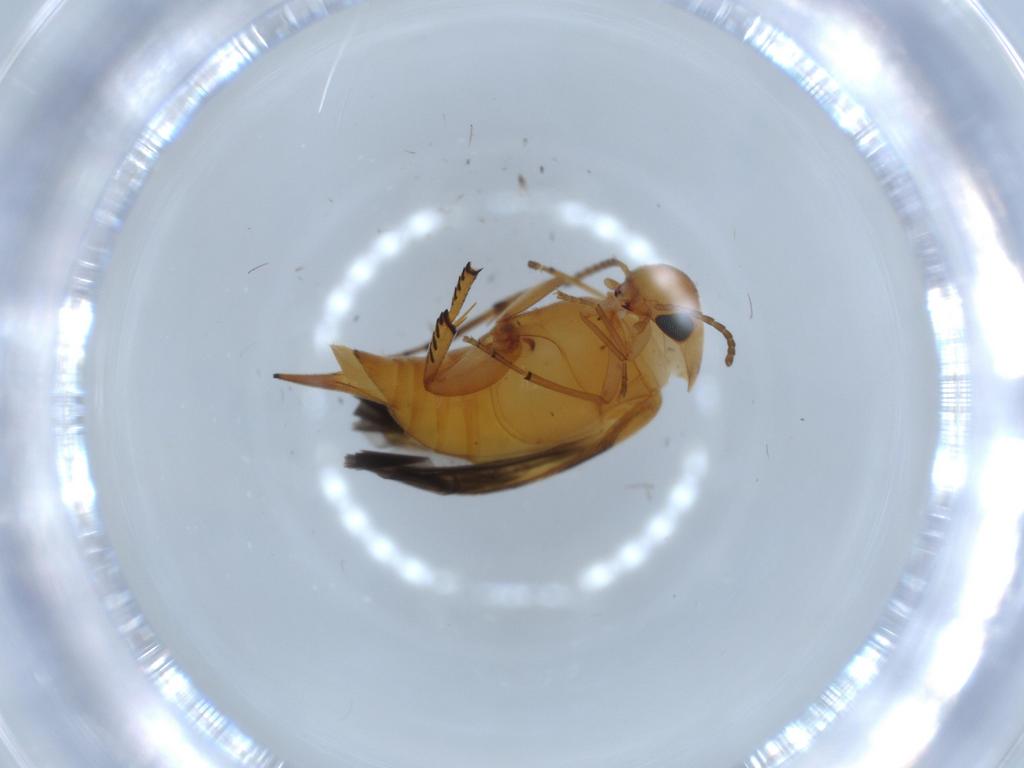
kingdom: Animalia
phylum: Arthropoda
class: Insecta
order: Coleoptera
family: Mordellidae
